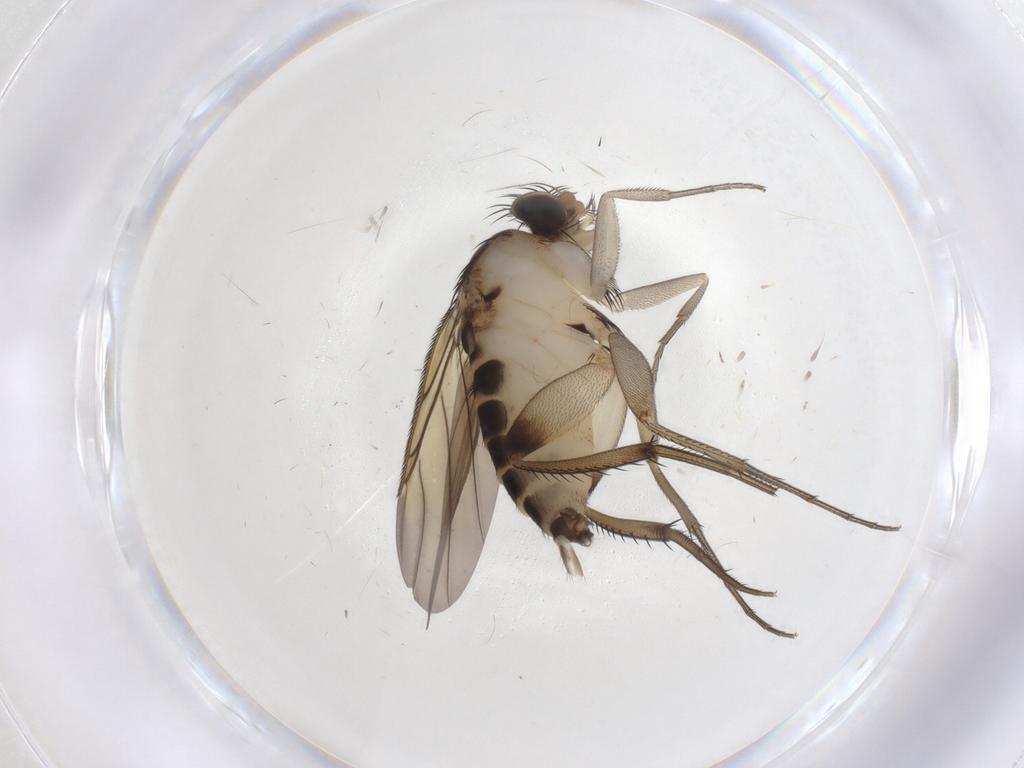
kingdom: Animalia
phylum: Arthropoda
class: Insecta
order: Diptera
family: Phoridae
